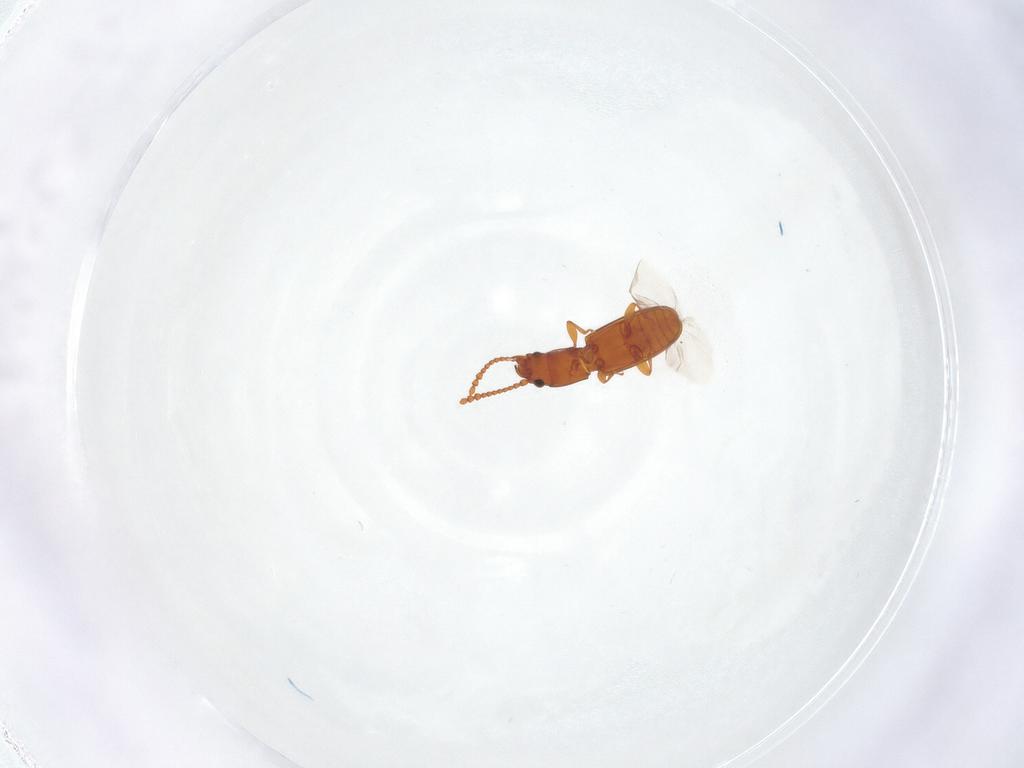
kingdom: Animalia
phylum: Arthropoda
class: Insecta
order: Coleoptera
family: Laemophloeidae
